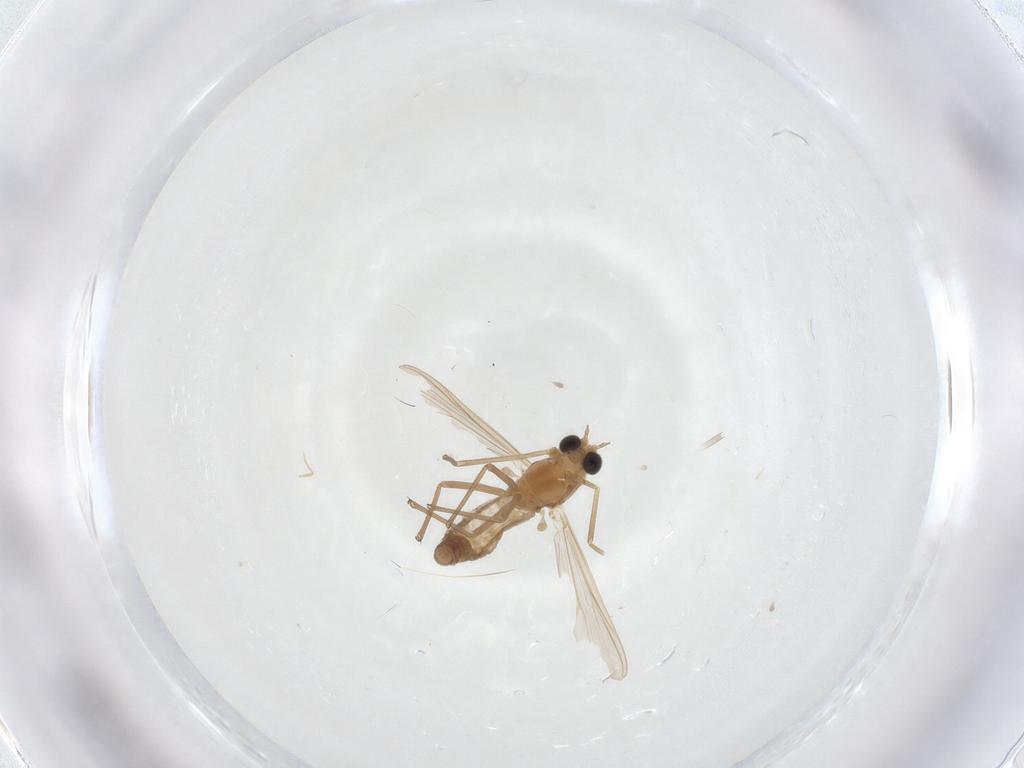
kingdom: Animalia
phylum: Arthropoda
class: Insecta
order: Diptera
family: Chironomidae
